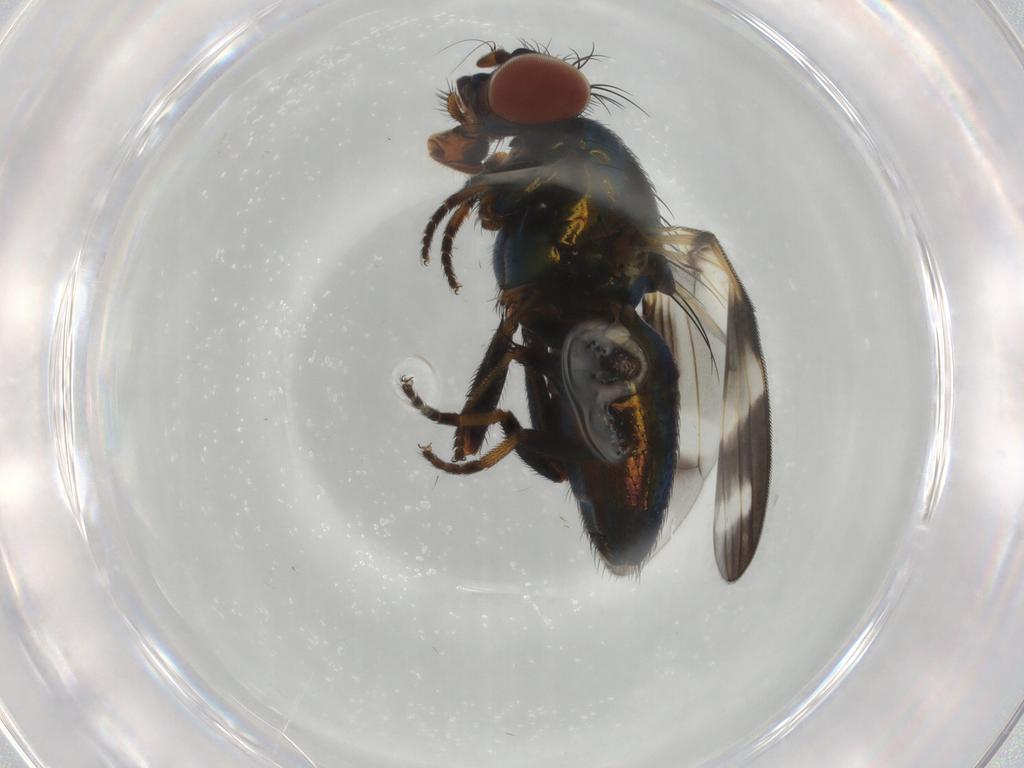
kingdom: Animalia
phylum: Arthropoda
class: Insecta
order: Diptera
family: Ulidiidae
